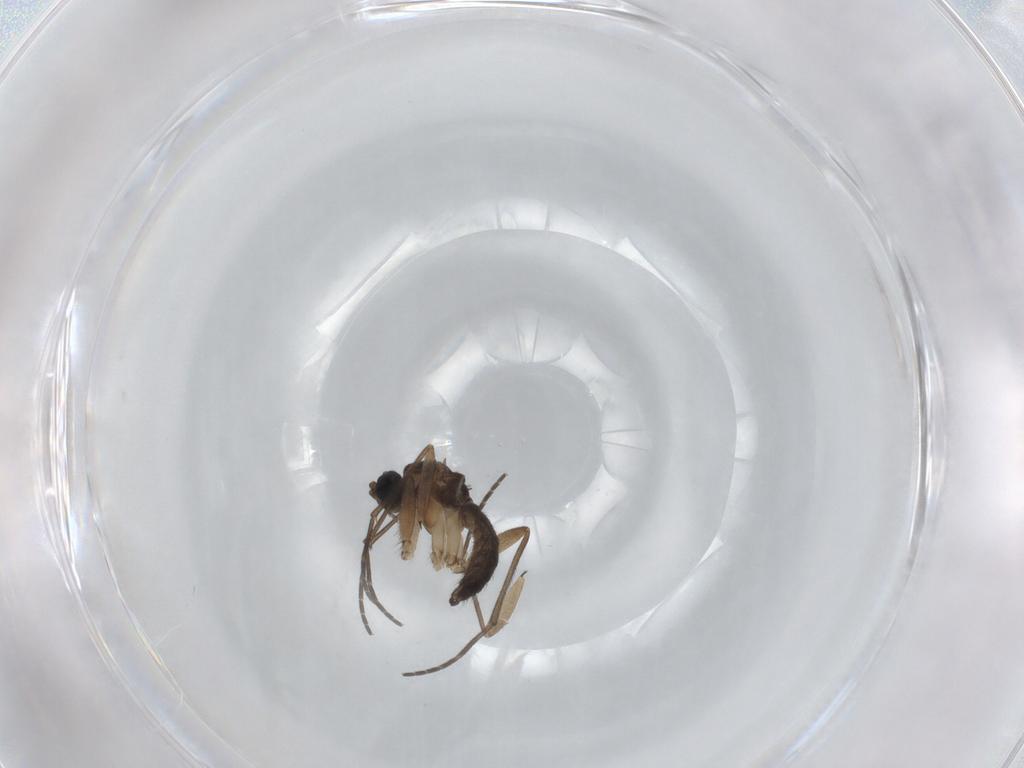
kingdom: Animalia
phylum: Arthropoda
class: Insecta
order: Diptera
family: Sciaridae
